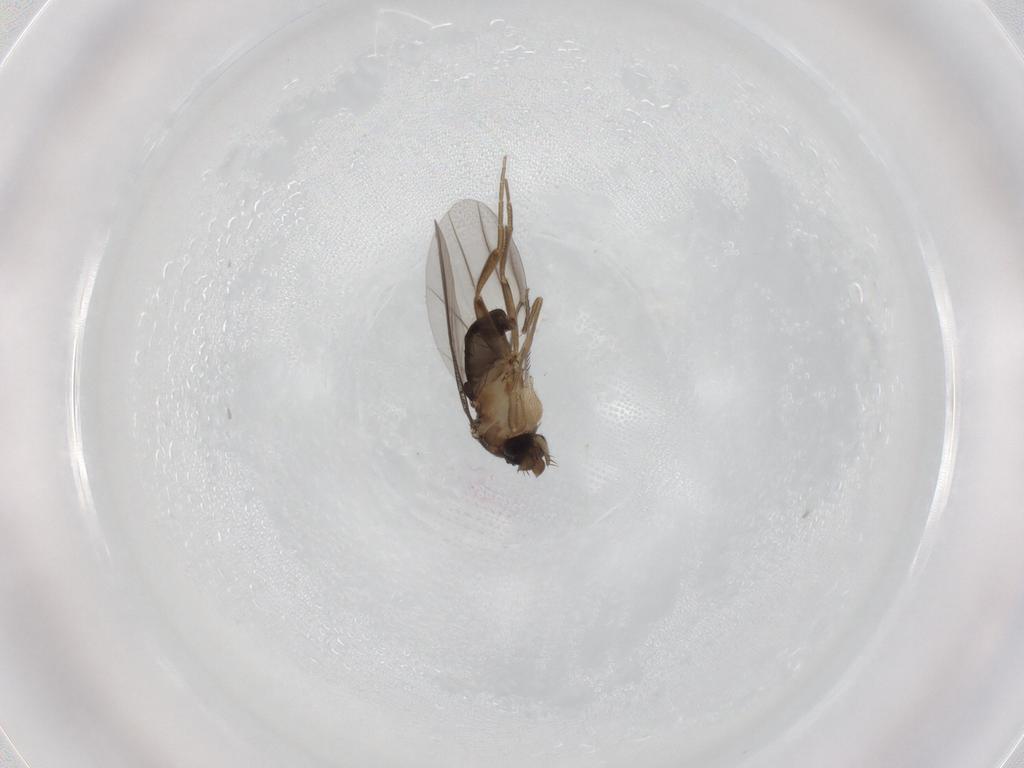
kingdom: Animalia
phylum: Arthropoda
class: Insecta
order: Diptera
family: Phoridae
